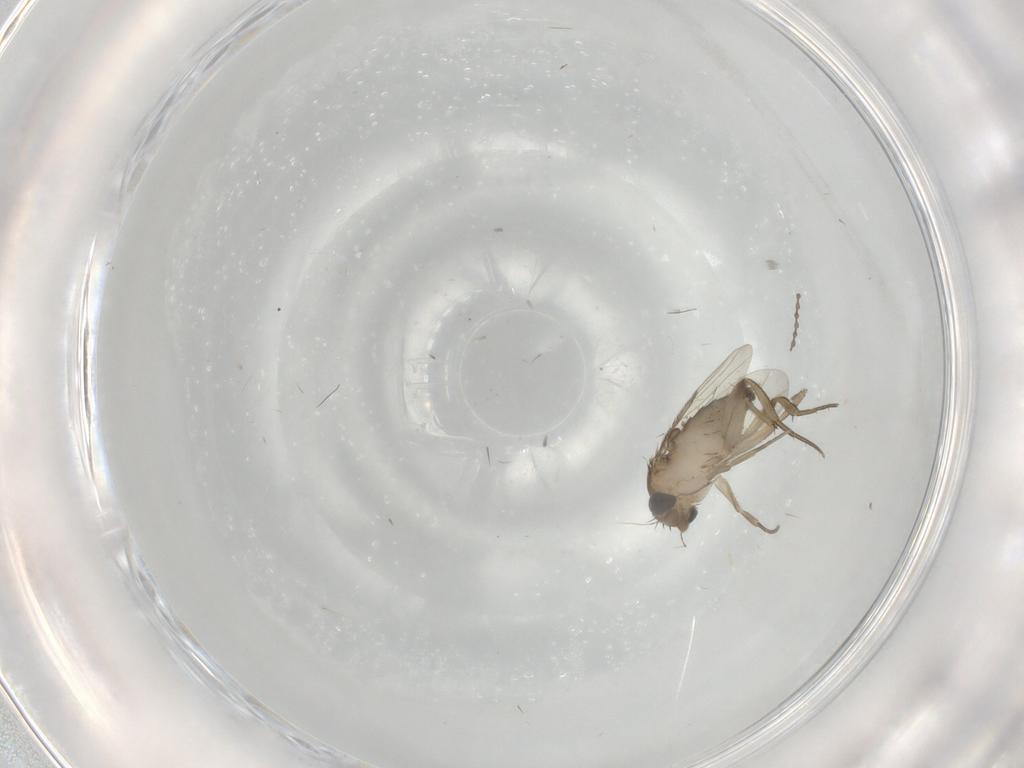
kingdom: Animalia
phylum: Arthropoda
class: Insecta
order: Diptera
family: Phoridae
